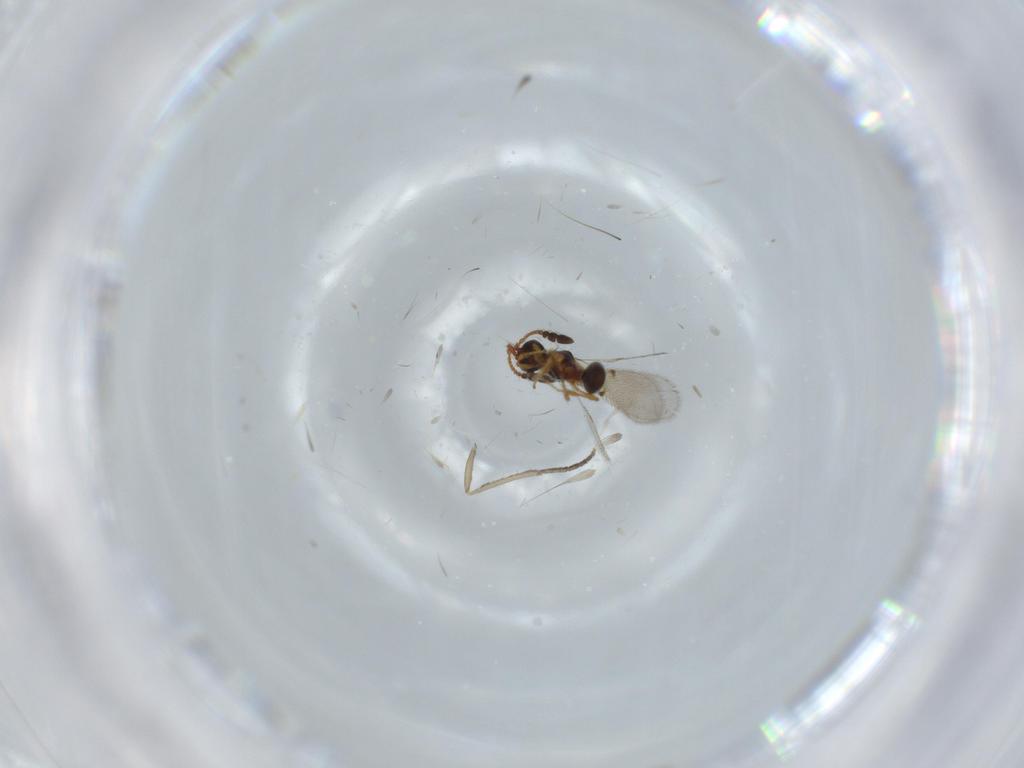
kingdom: Animalia
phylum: Arthropoda
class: Insecta
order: Hymenoptera
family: Diapriidae
